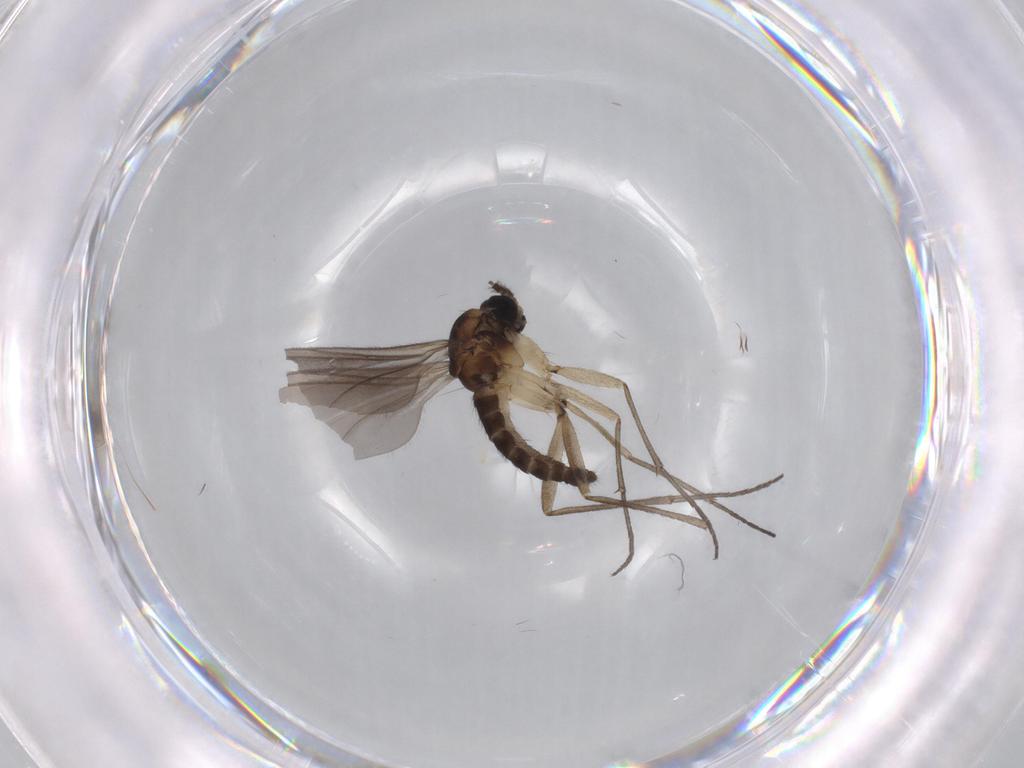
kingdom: Animalia
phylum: Arthropoda
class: Insecta
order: Diptera
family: Sciaridae
